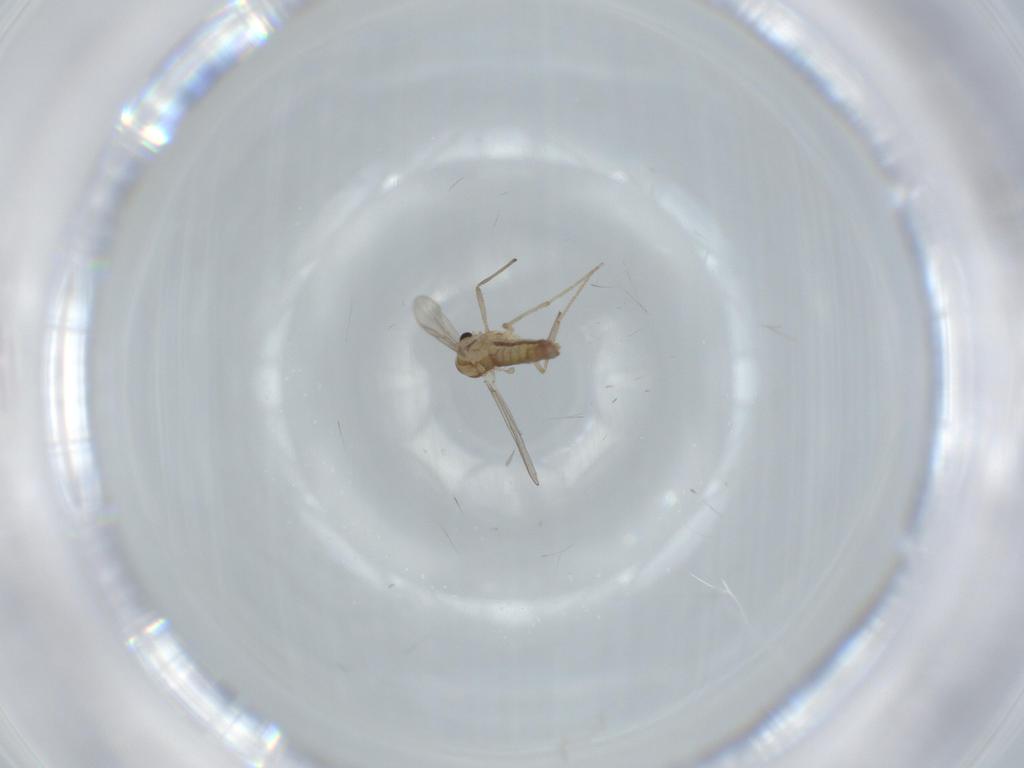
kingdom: Animalia
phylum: Arthropoda
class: Insecta
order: Diptera
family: Chironomidae
